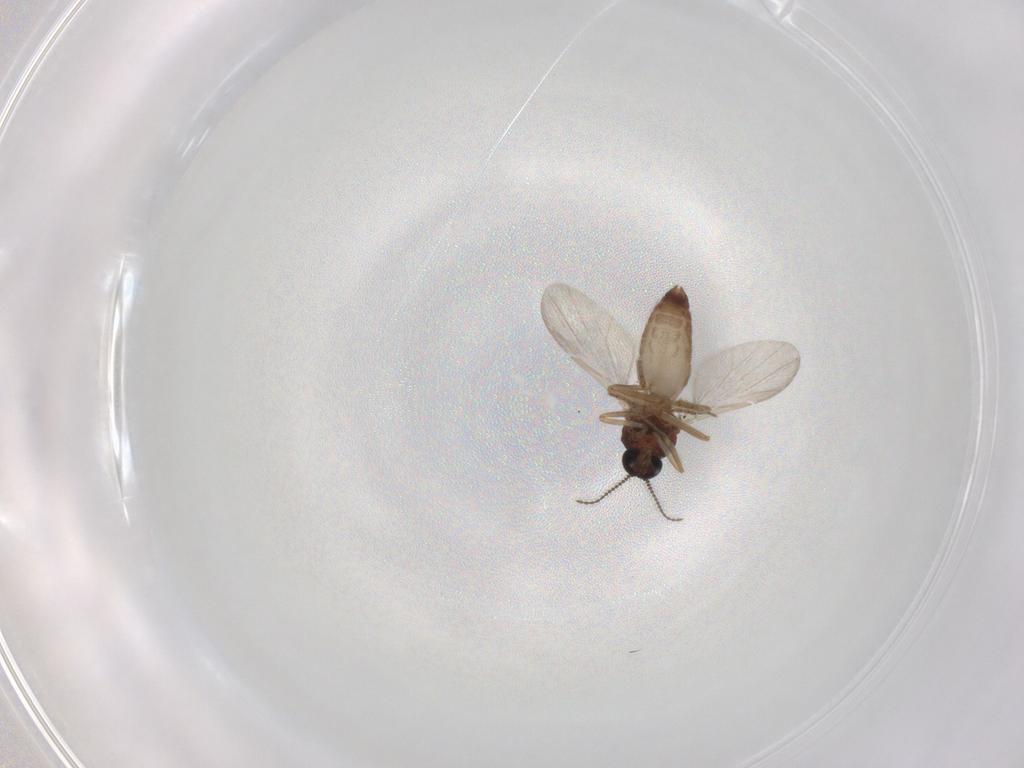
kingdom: Animalia
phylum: Arthropoda
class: Insecta
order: Diptera
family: Ceratopogonidae
